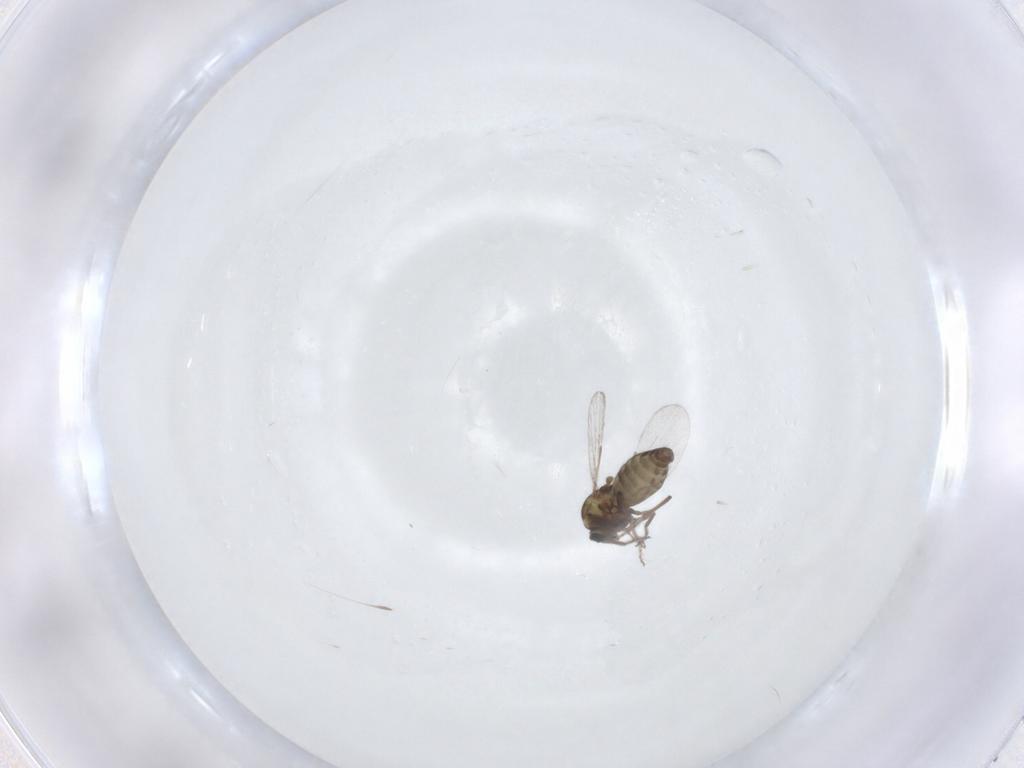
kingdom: Animalia
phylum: Arthropoda
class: Insecta
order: Diptera
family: Ceratopogonidae
